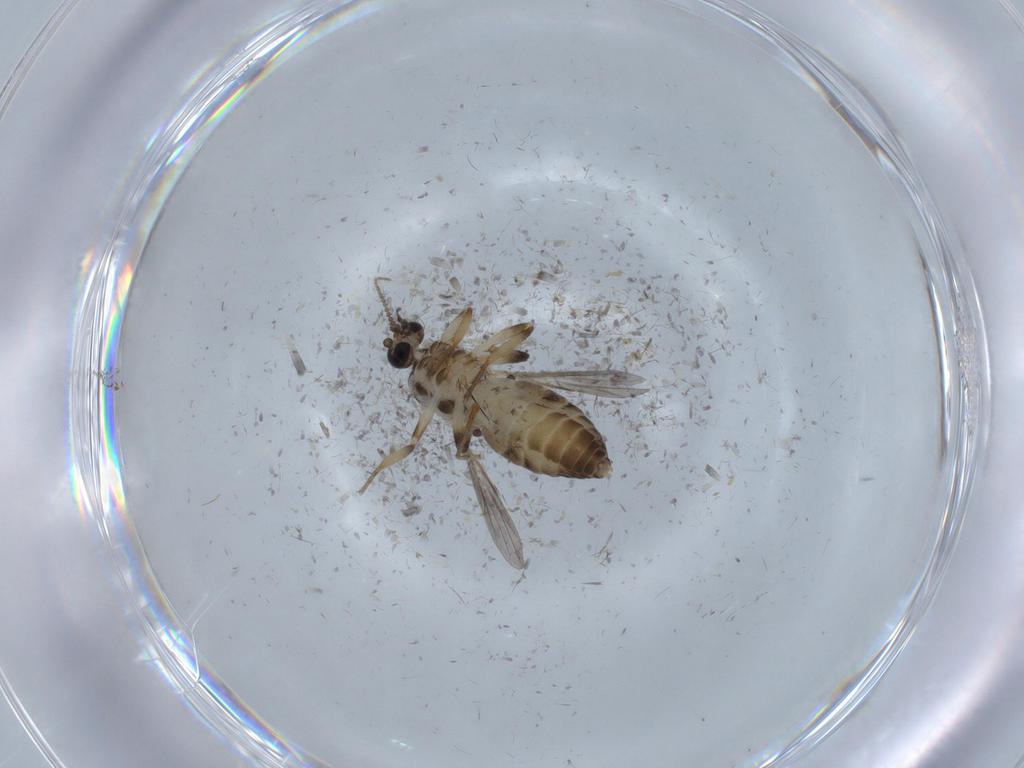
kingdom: Animalia
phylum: Arthropoda
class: Insecta
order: Diptera
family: Ceratopogonidae
